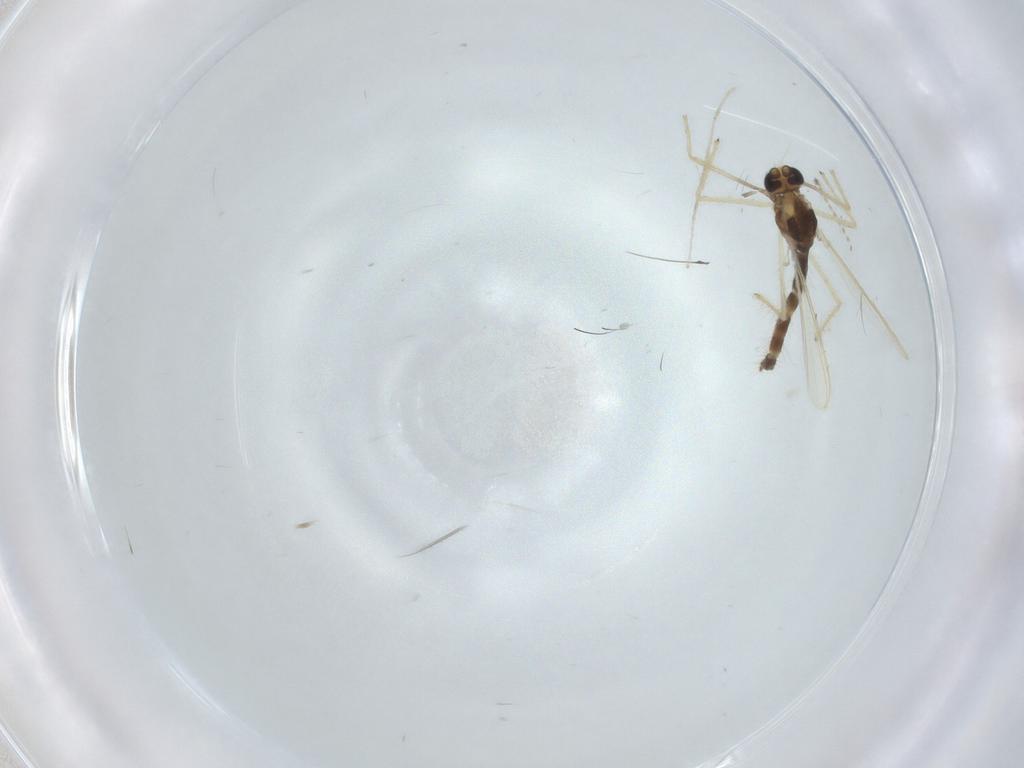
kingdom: Animalia
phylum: Arthropoda
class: Insecta
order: Diptera
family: Chironomidae
